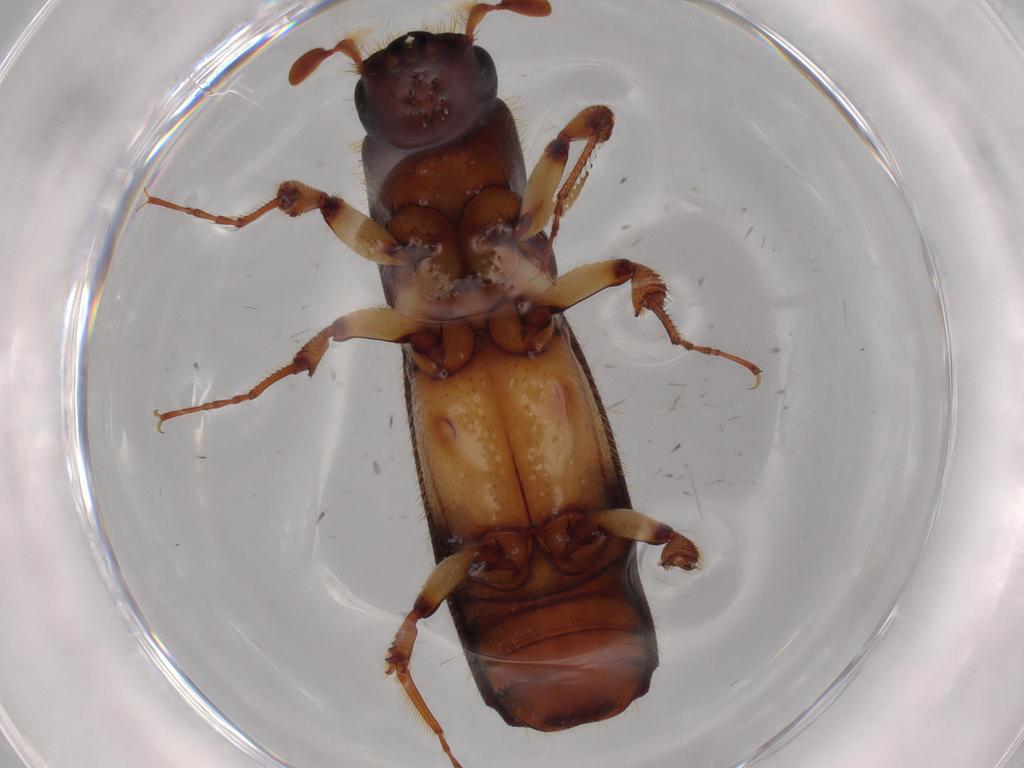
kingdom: Animalia
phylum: Arthropoda
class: Insecta
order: Coleoptera
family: Curculionidae
